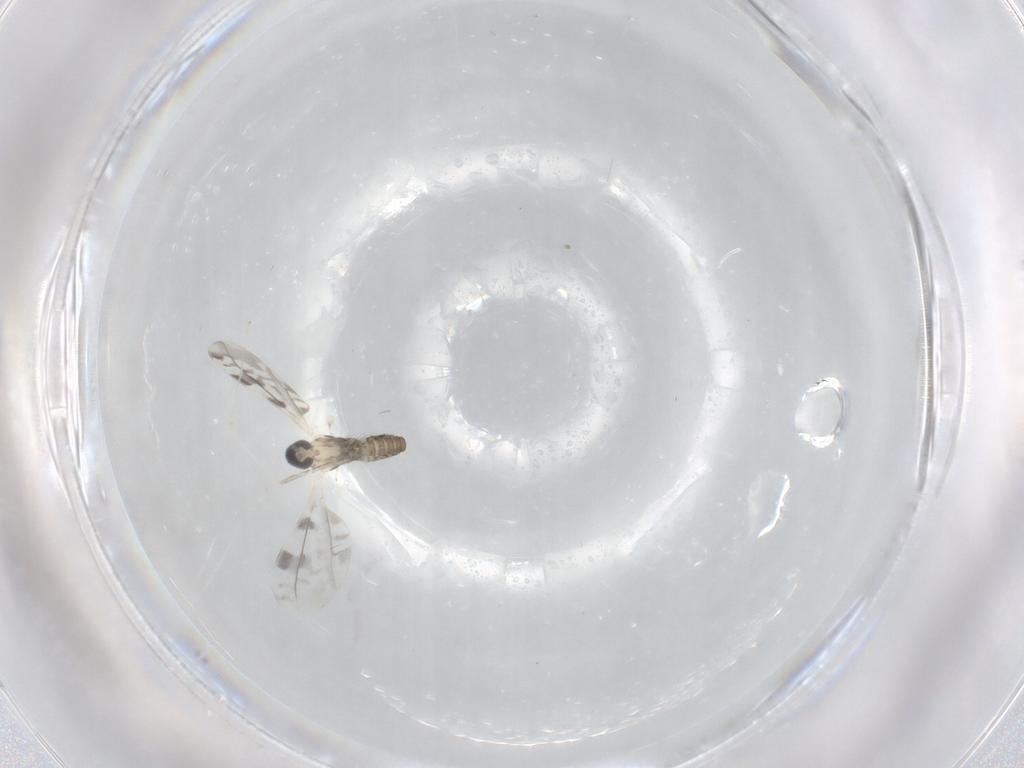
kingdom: Animalia
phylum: Arthropoda
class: Insecta
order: Diptera
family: Cecidomyiidae
